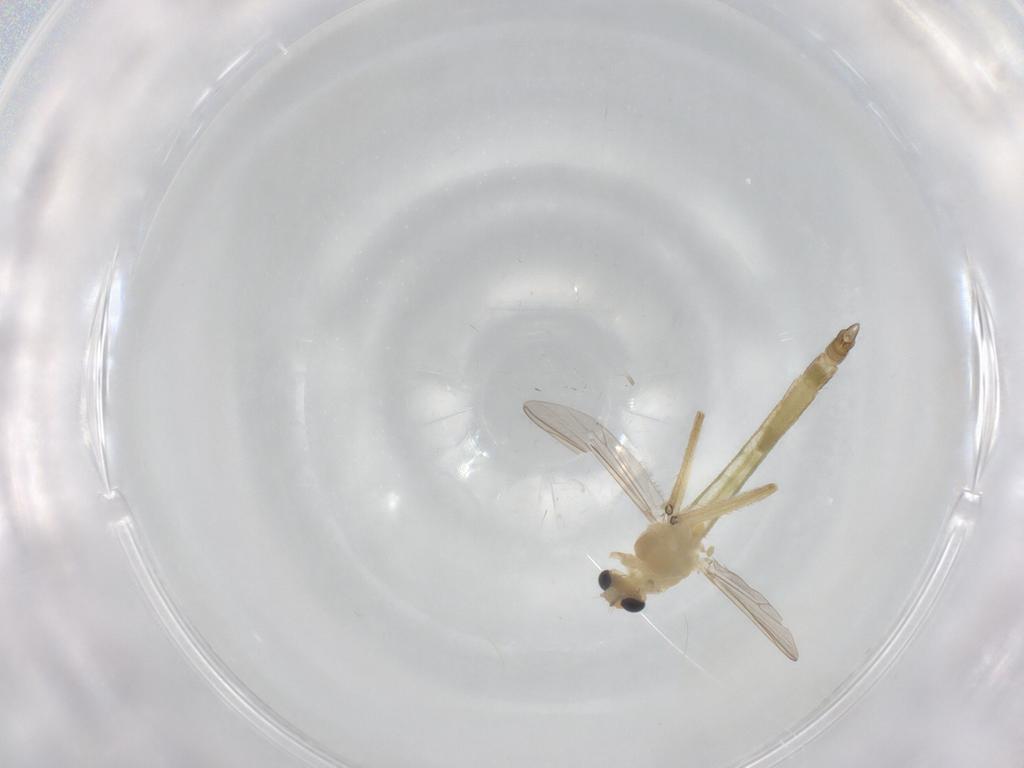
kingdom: Animalia
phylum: Arthropoda
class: Insecta
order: Diptera
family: Chironomidae
